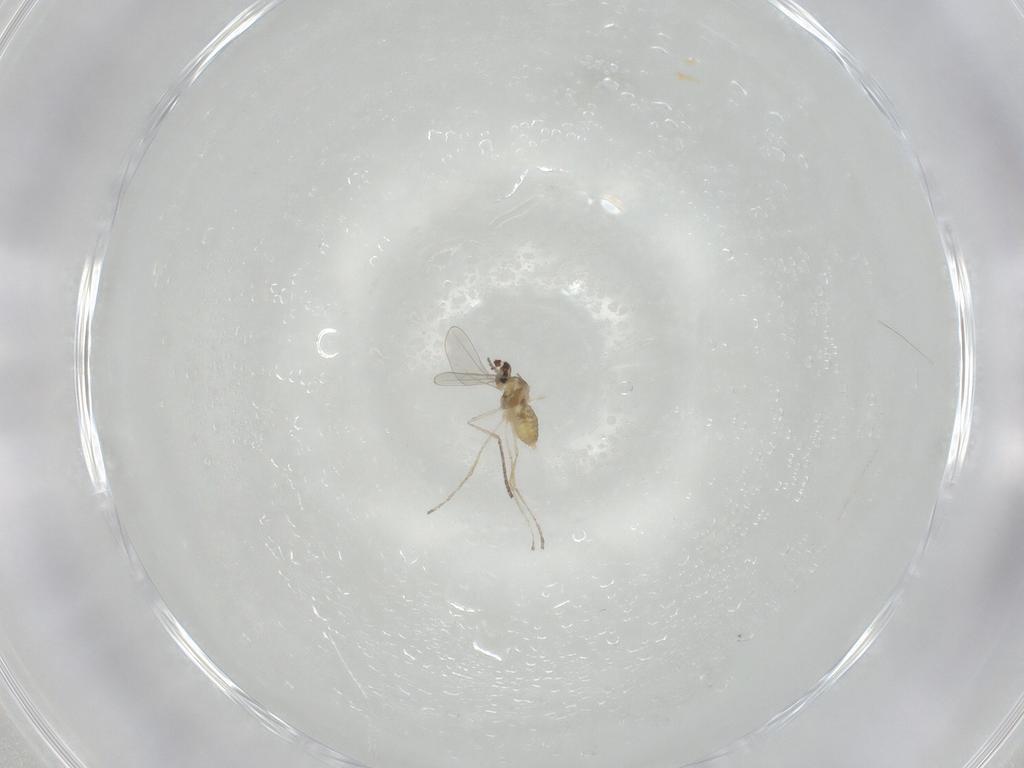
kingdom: Animalia
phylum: Arthropoda
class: Insecta
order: Diptera
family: Cecidomyiidae
